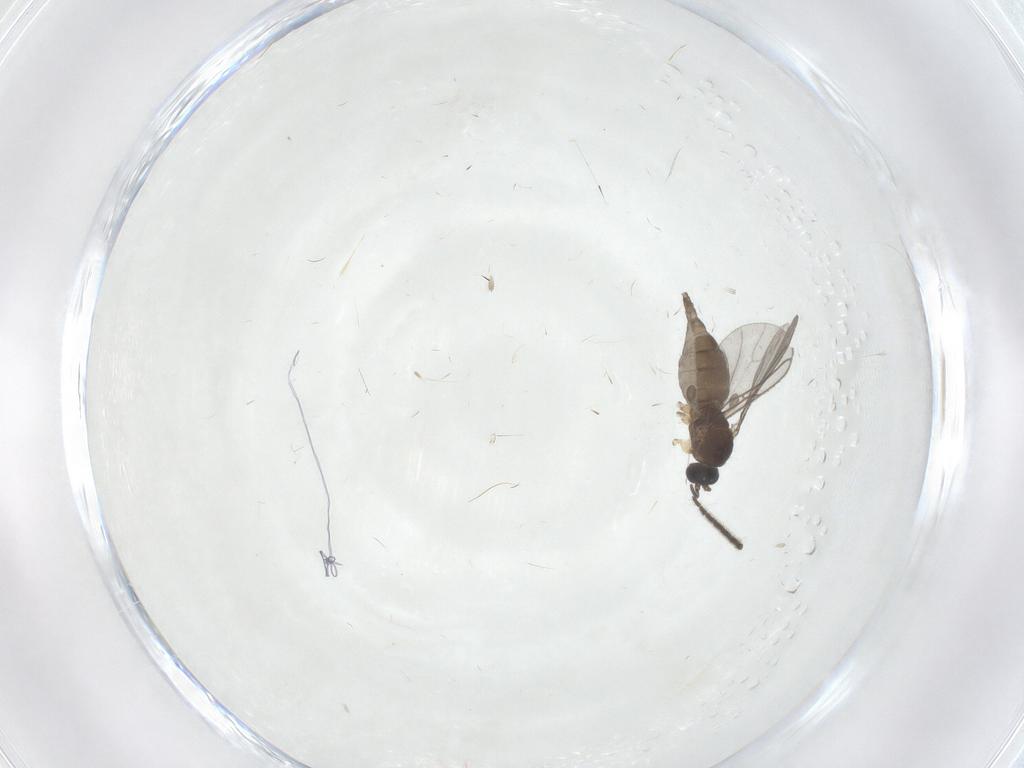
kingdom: Animalia
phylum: Arthropoda
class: Insecta
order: Diptera
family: Sciaridae
